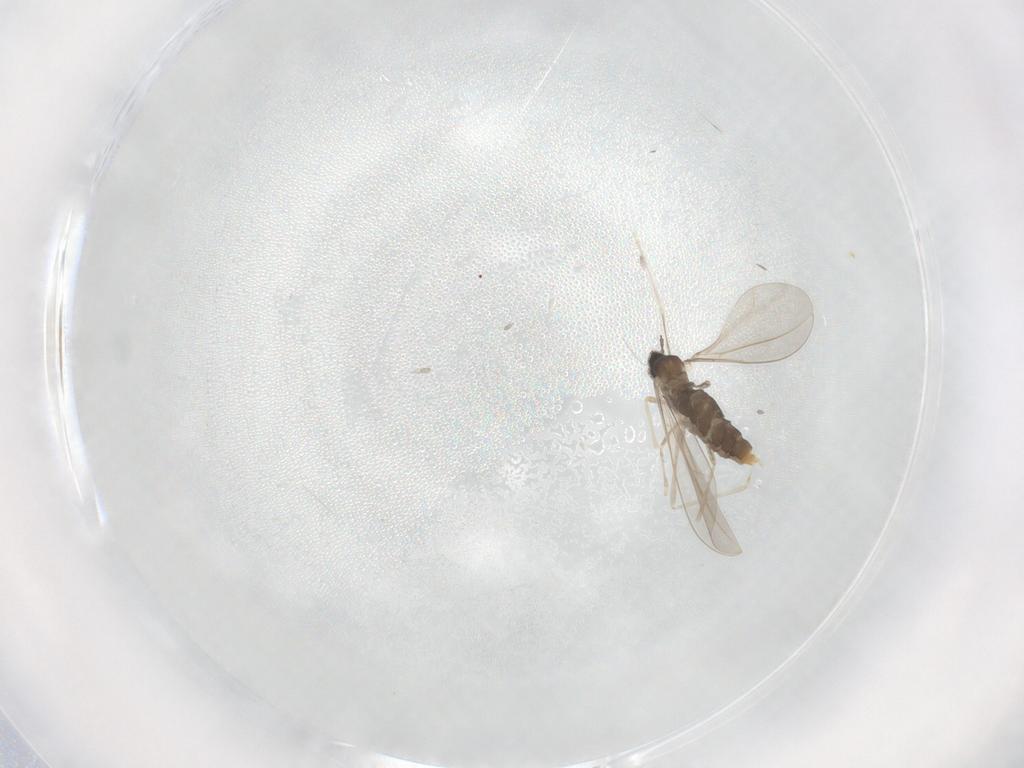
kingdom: Animalia
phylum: Arthropoda
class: Insecta
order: Diptera
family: Cecidomyiidae
